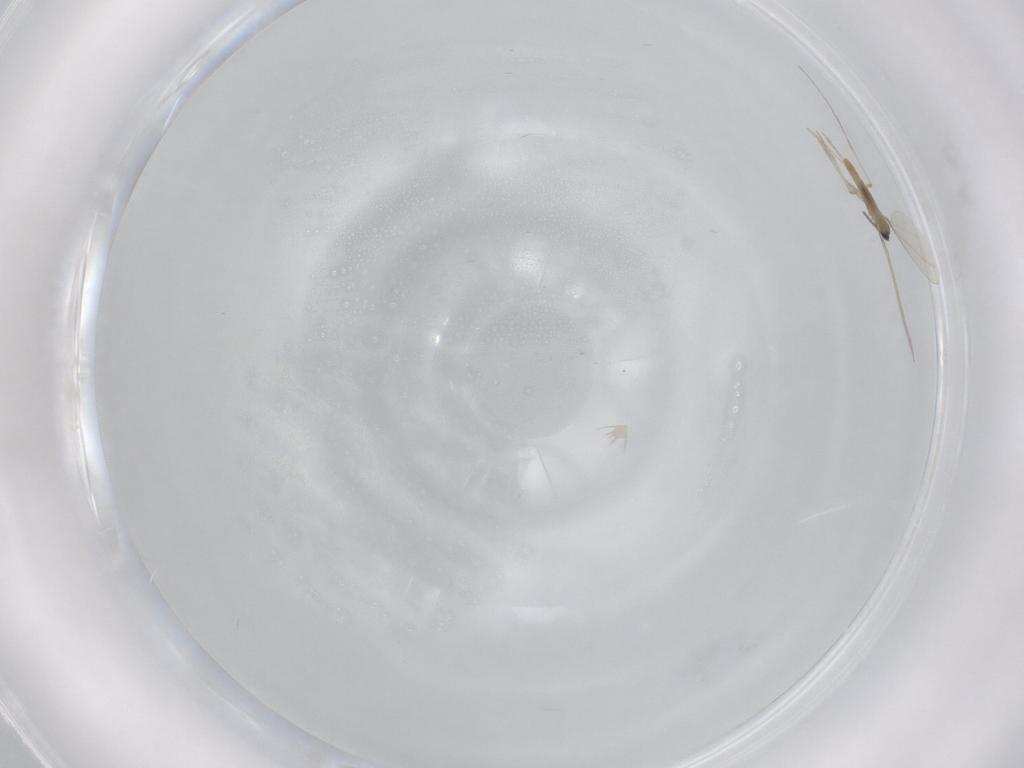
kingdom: Animalia
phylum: Arthropoda
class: Insecta
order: Diptera
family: Cecidomyiidae
